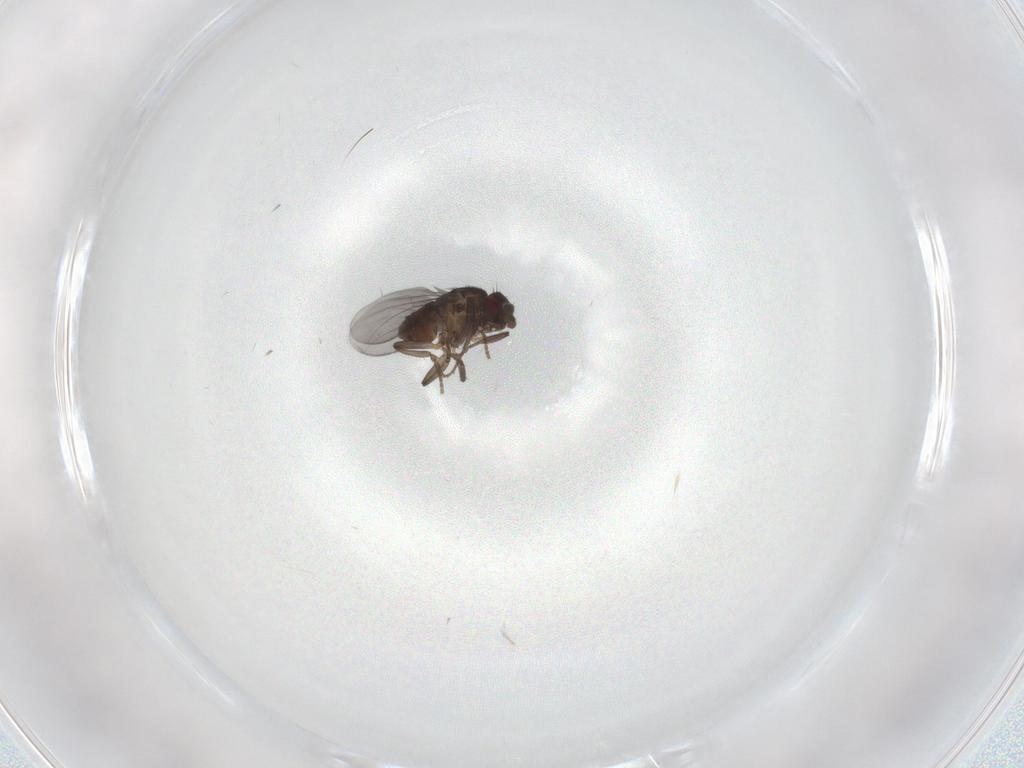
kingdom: Animalia
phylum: Arthropoda
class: Insecta
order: Diptera
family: Sphaeroceridae
